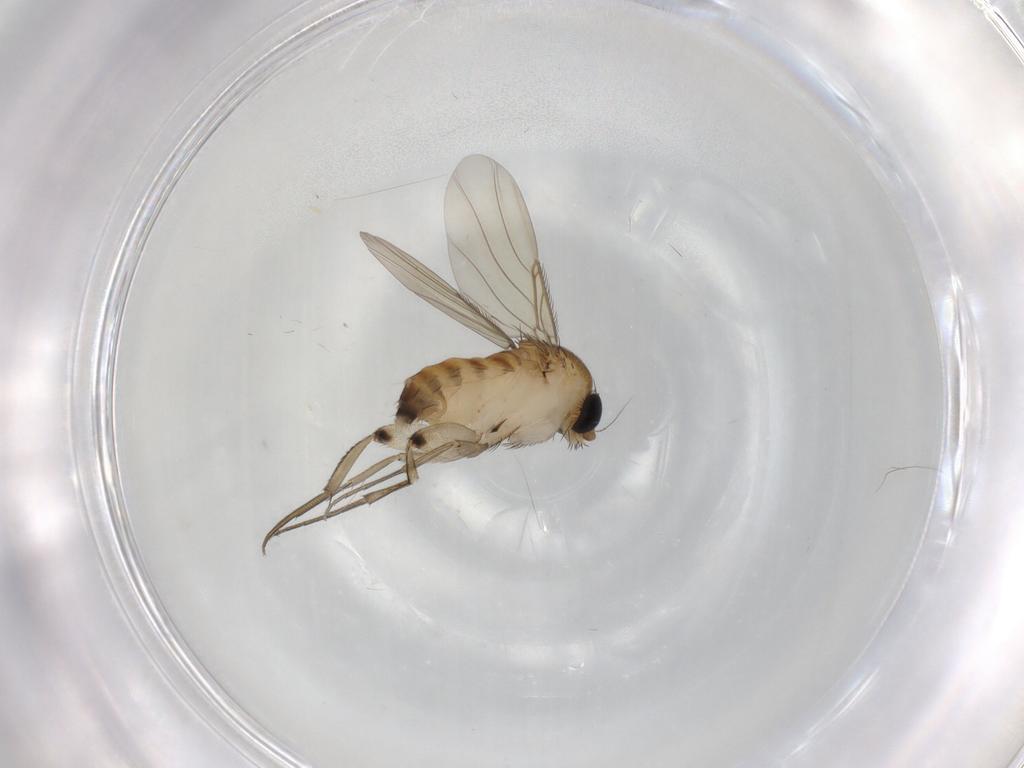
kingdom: Animalia
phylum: Arthropoda
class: Insecta
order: Diptera
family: Phoridae
